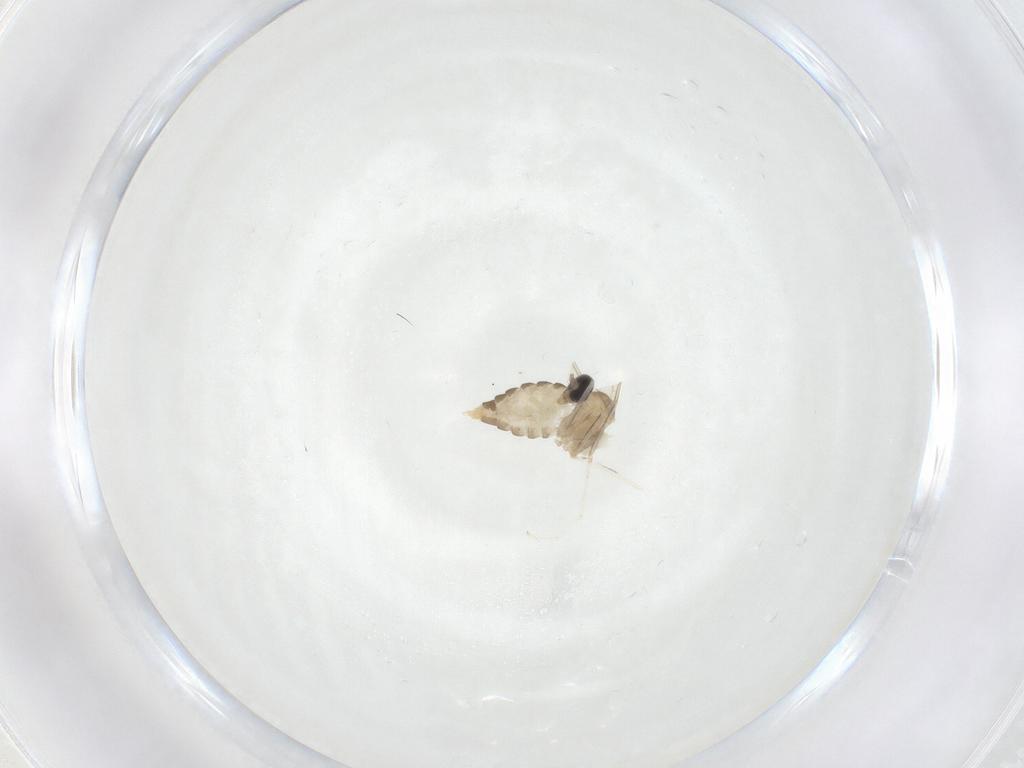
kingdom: Animalia
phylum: Arthropoda
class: Insecta
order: Diptera
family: Cecidomyiidae
